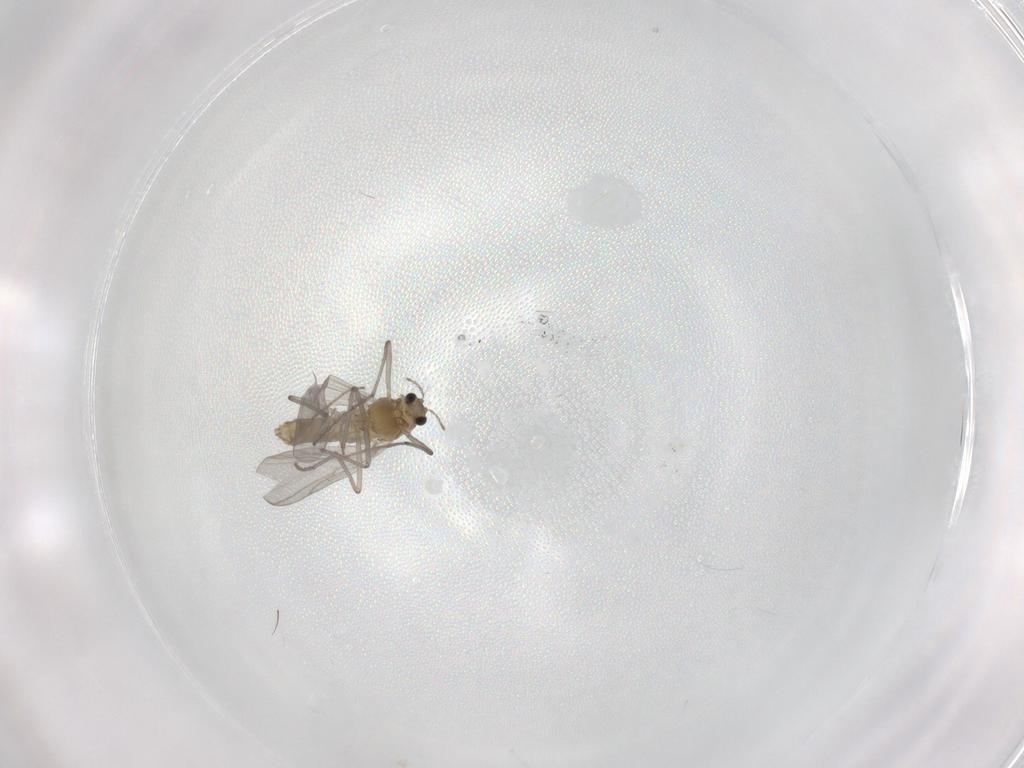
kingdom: Animalia
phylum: Arthropoda
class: Insecta
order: Diptera
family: Chironomidae
